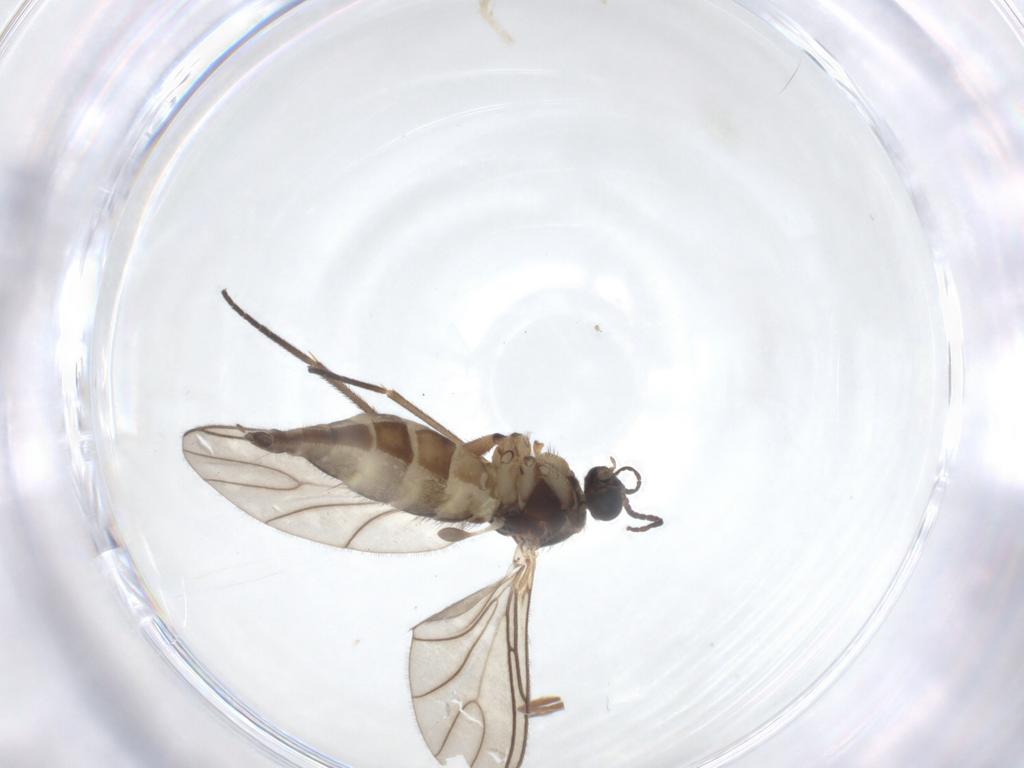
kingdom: Animalia
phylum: Arthropoda
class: Insecta
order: Diptera
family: Sciaridae
